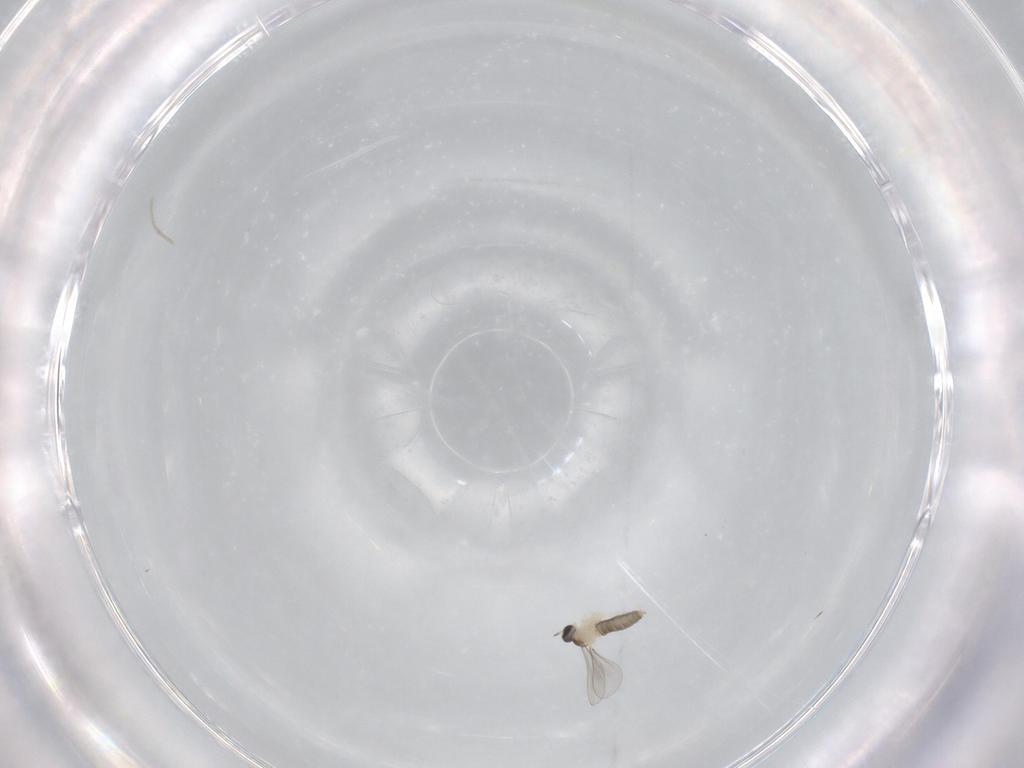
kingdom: Animalia
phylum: Arthropoda
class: Insecta
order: Diptera
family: Cecidomyiidae
